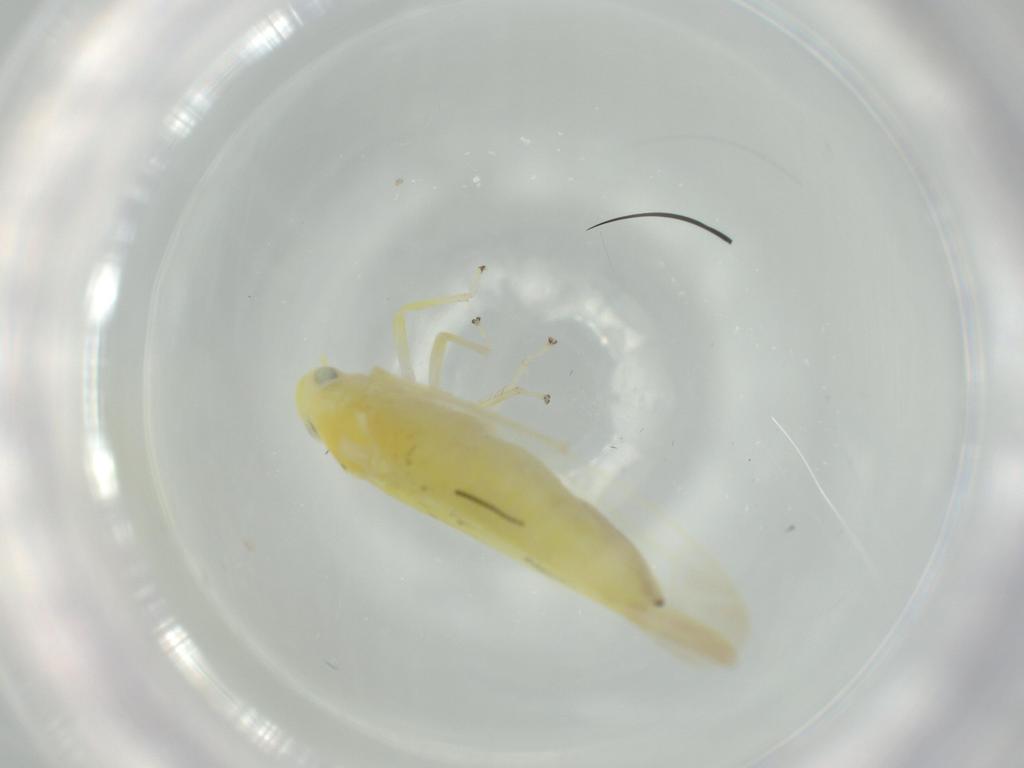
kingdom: Animalia
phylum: Arthropoda
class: Insecta
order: Hemiptera
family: Cicadellidae
